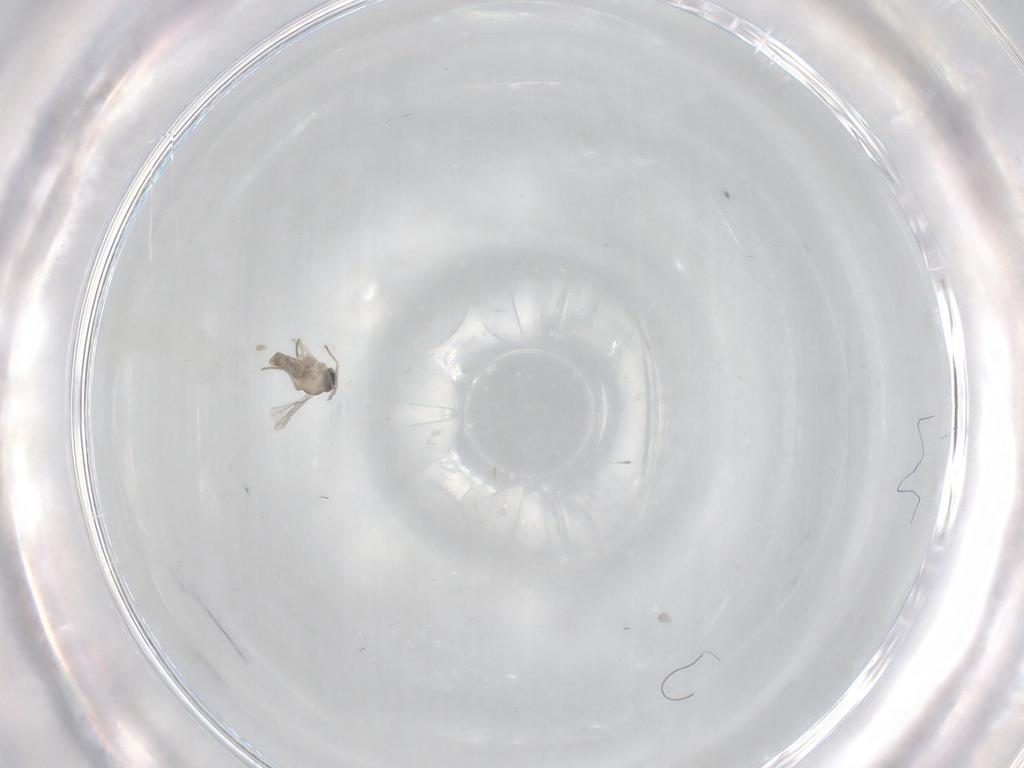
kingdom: Animalia
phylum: Arthropoda
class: Insecta
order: Diptera
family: Cecidomyiidae
